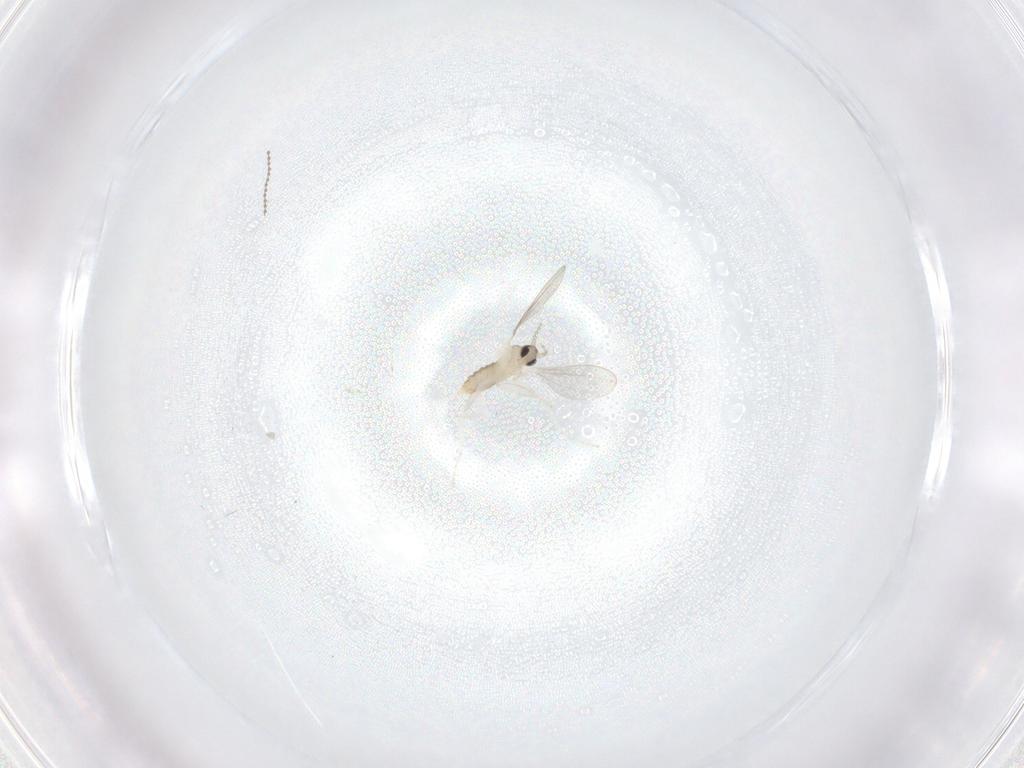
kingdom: Animalia
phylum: Arthropoda
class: Insecta
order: Diptera
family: Cecidomyiidae
